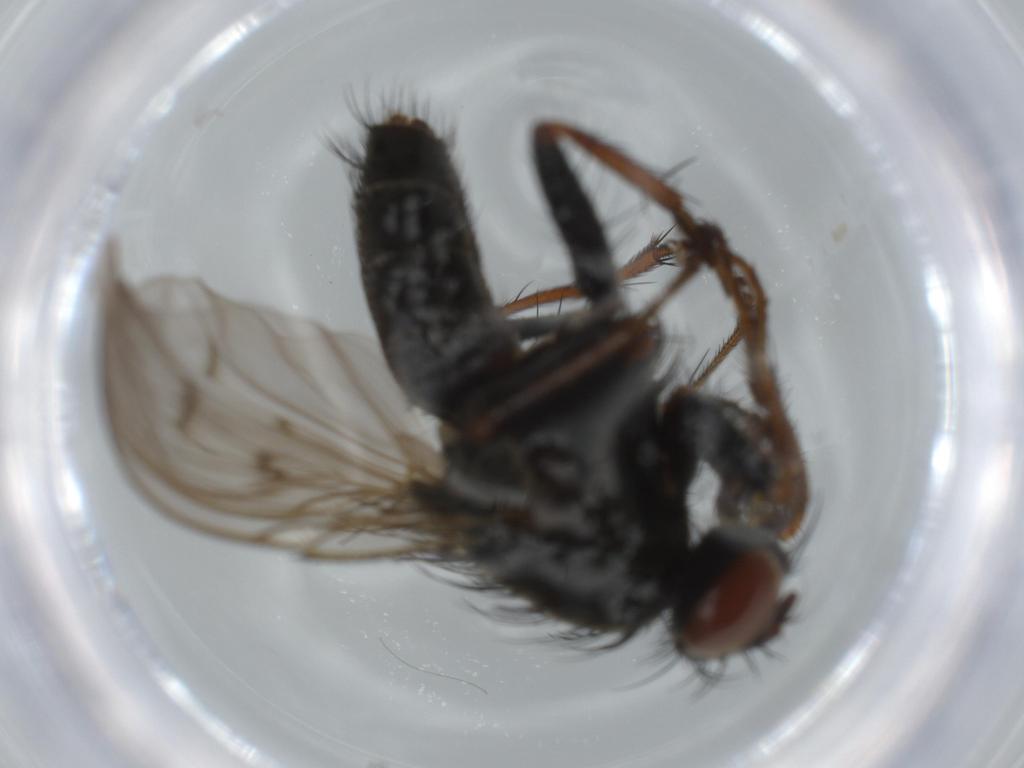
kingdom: Animalia
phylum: Arthropoda
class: Insecta
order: Diptera
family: Muscidae
